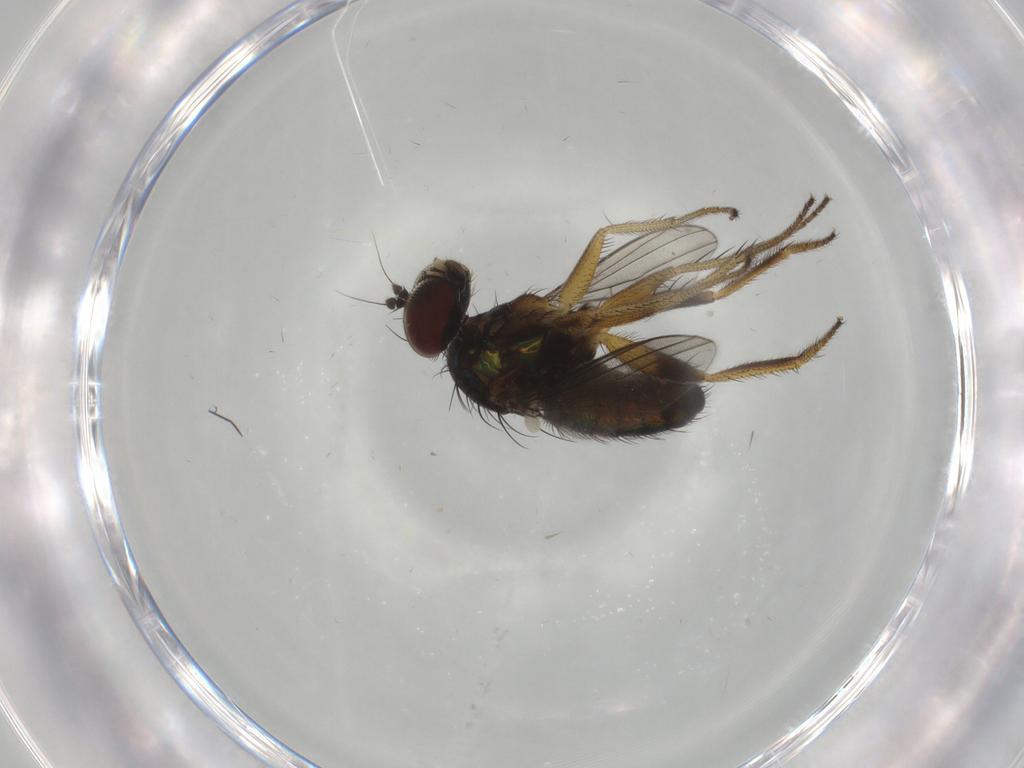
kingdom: Animalia
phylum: Arthropoda
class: Insecta
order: Diptera
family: Dolichopodidae
